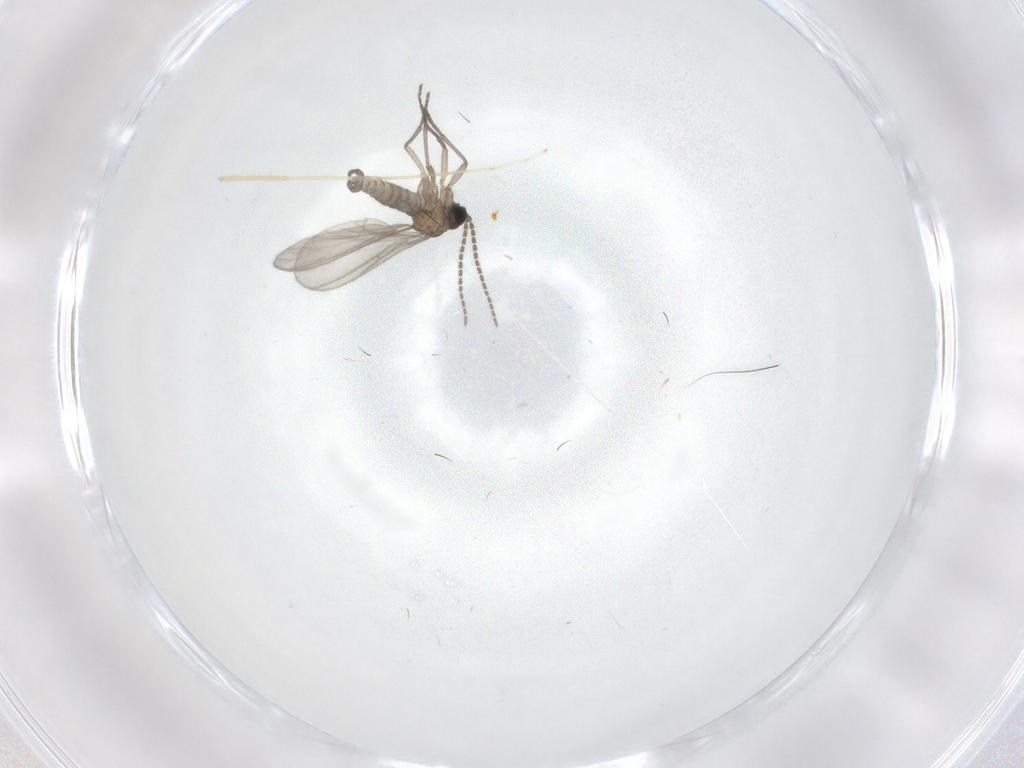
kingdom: Animalia
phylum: Arthropoda
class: Insecta
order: Diptera
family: Sciaridae
